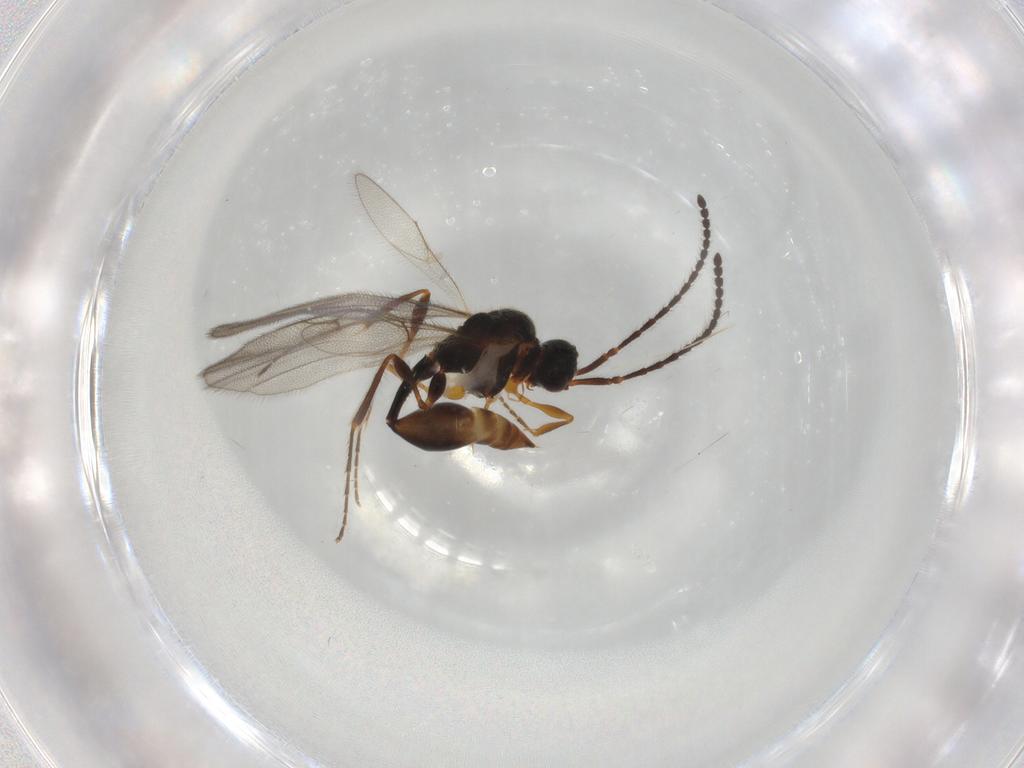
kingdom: Animalia
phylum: Arthropoda
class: Insecta
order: Hymenoptera
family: Diapriidae
